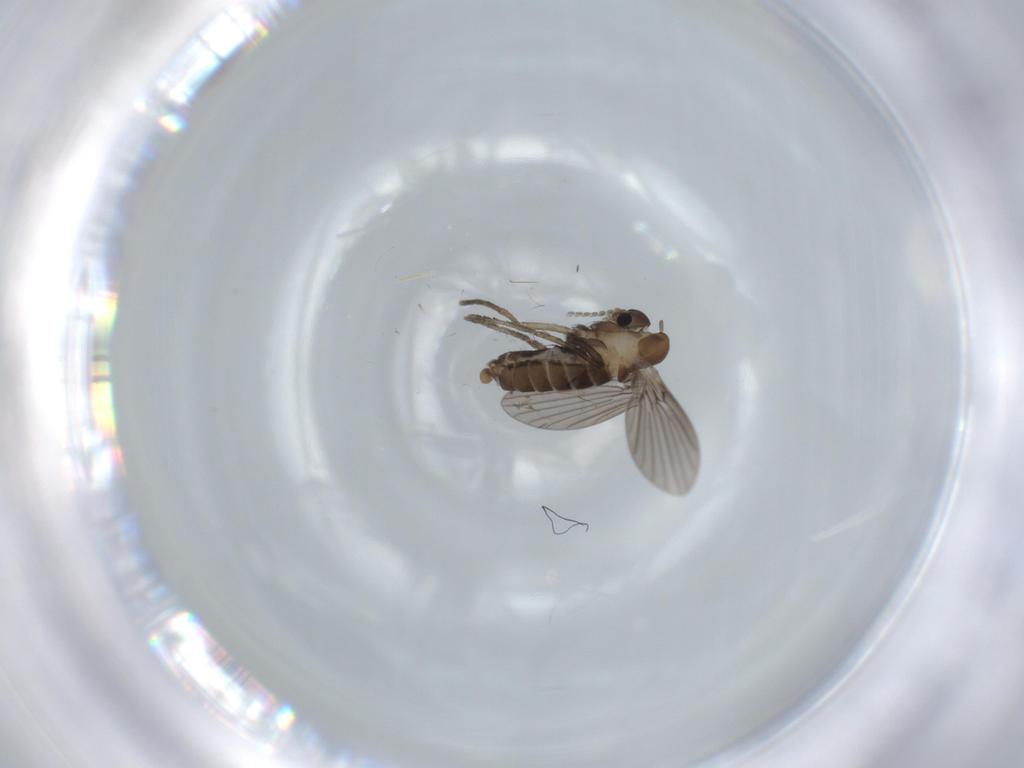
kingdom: Animalia
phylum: Arthropoda
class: Insecta
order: Diptera
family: Psychodidae
